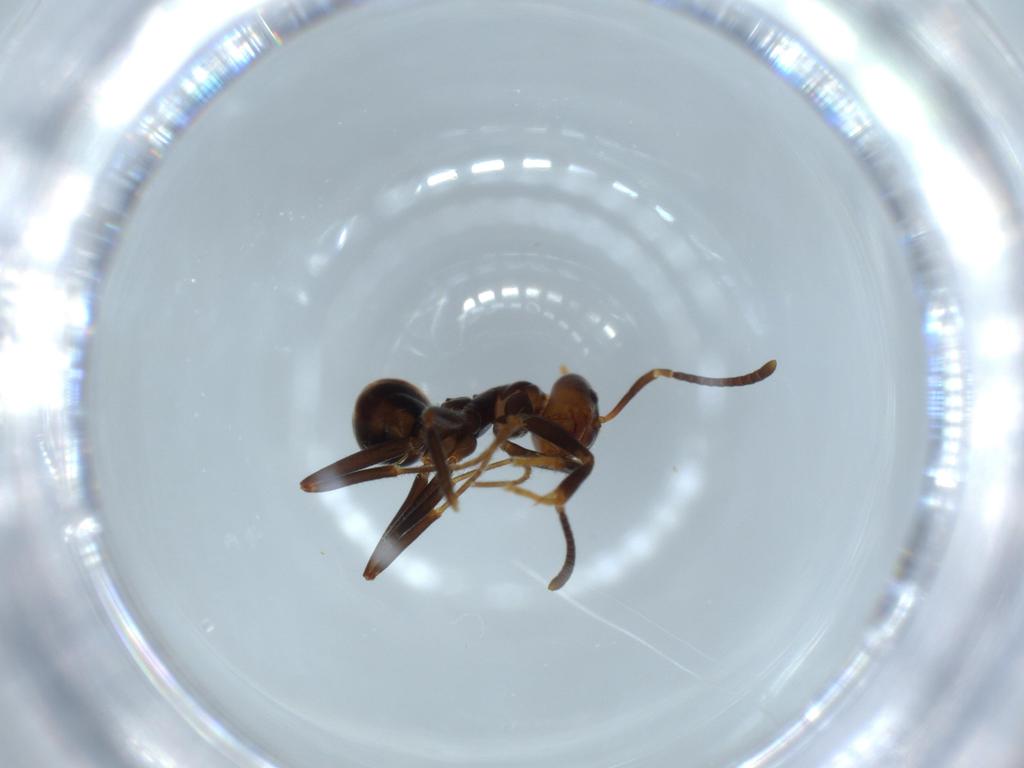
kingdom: Animalia
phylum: Arthropoda
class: Insecta
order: Hymenoptera
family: Formicidae
